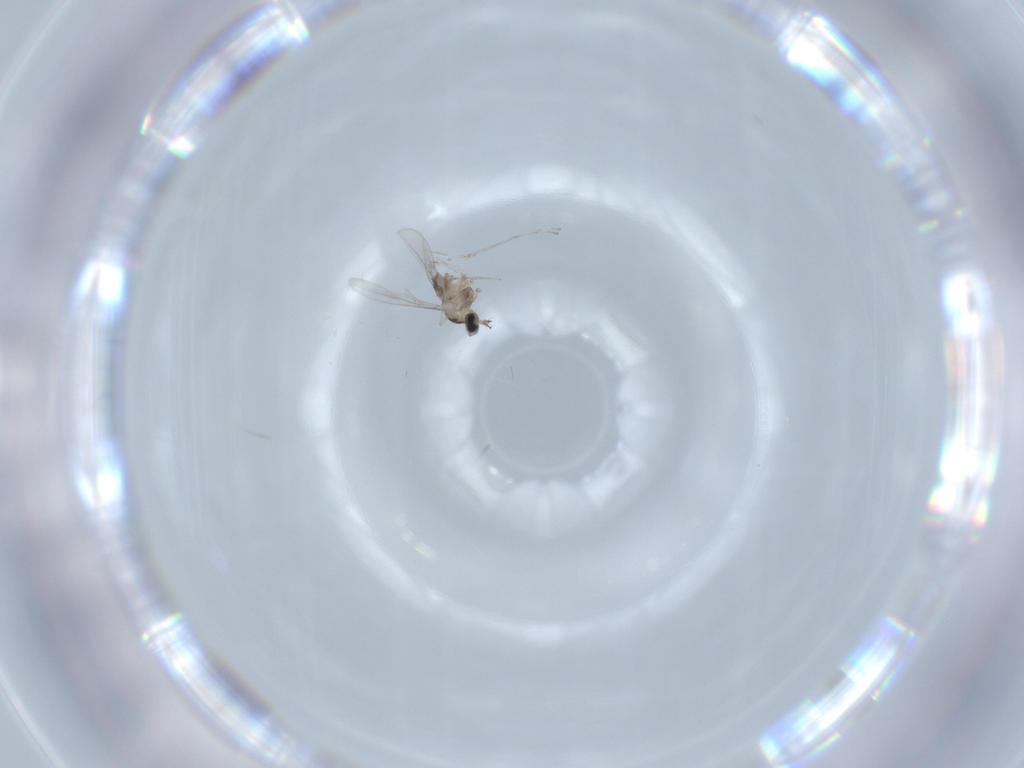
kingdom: Animalia
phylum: Arthropoda
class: Insecta
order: Diptera
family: Cecidomyiidae
